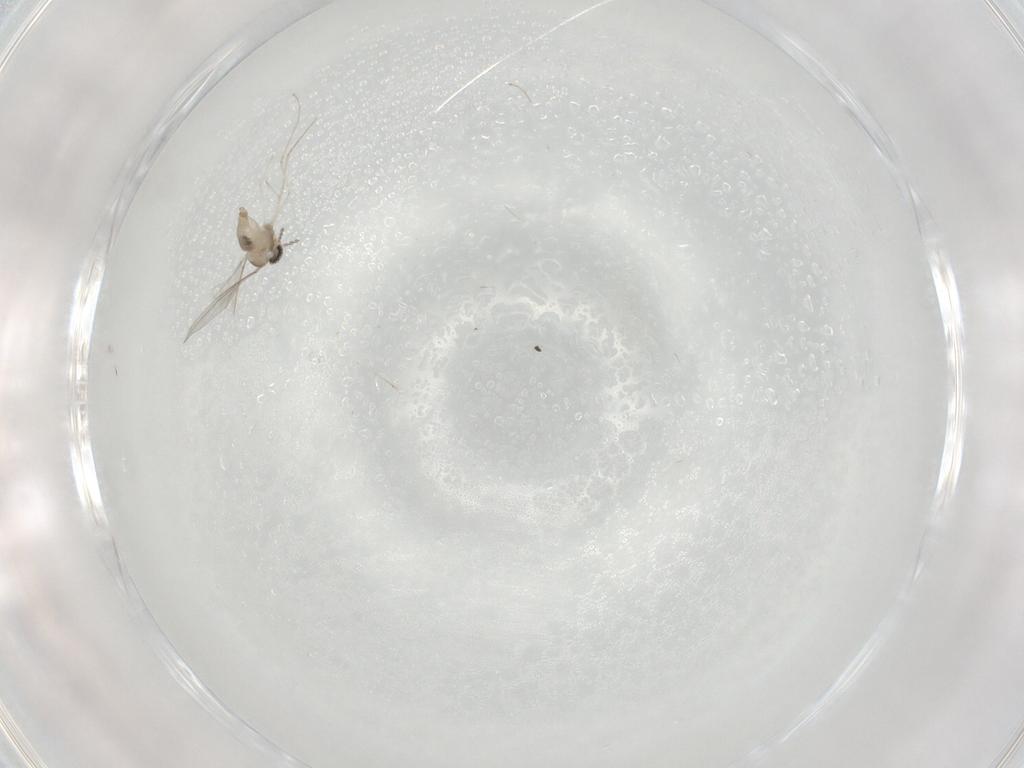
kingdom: Animalia
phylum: Arthropoda
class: Insecta
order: Diptera
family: Cecidomyiidae
